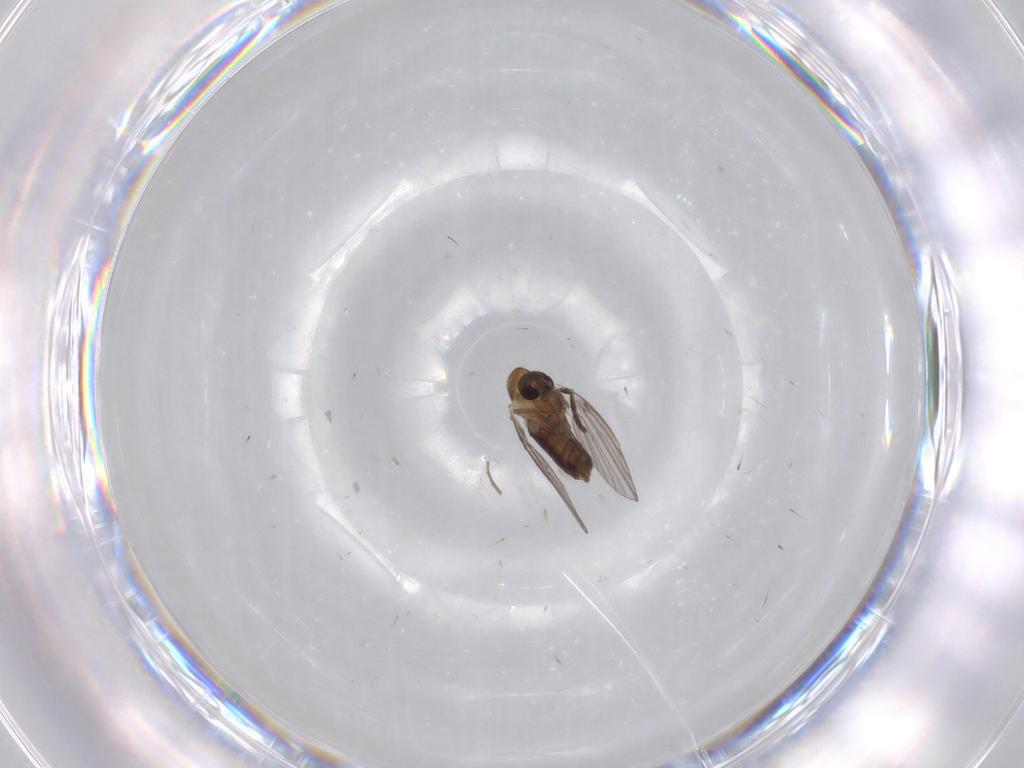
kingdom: Animalia
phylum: Arthropoda
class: Insecta
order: Diptera
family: Phoridae
